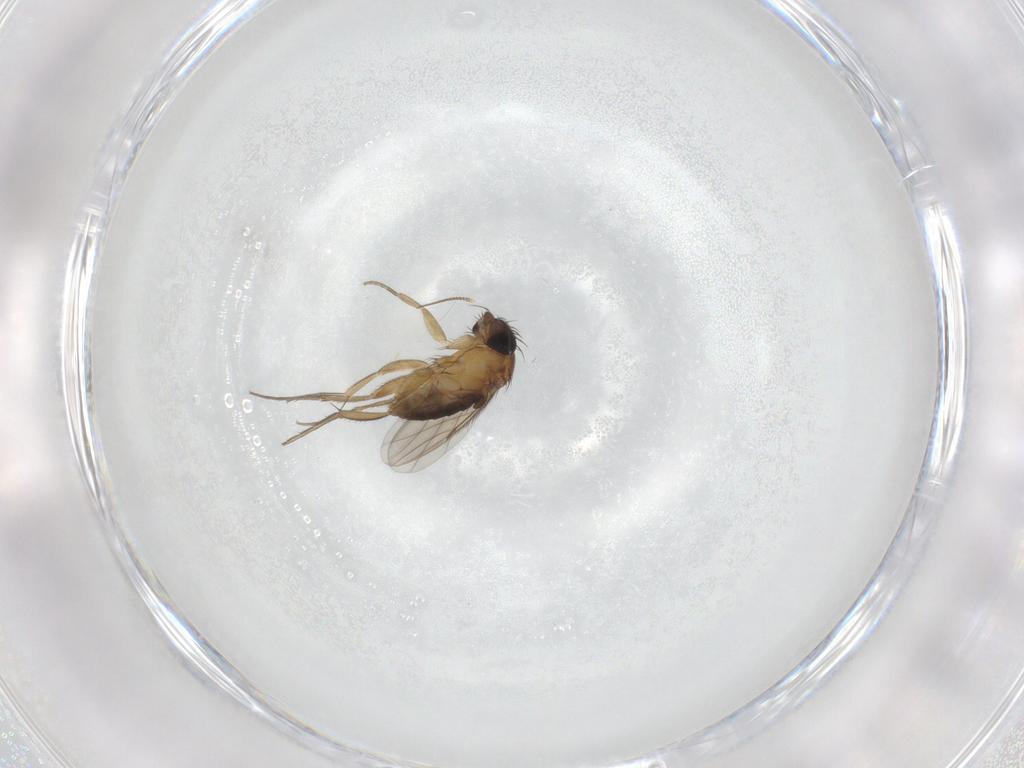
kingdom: Animalia
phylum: Arthropoda
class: Insecta
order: Diptera
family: Phoridae
